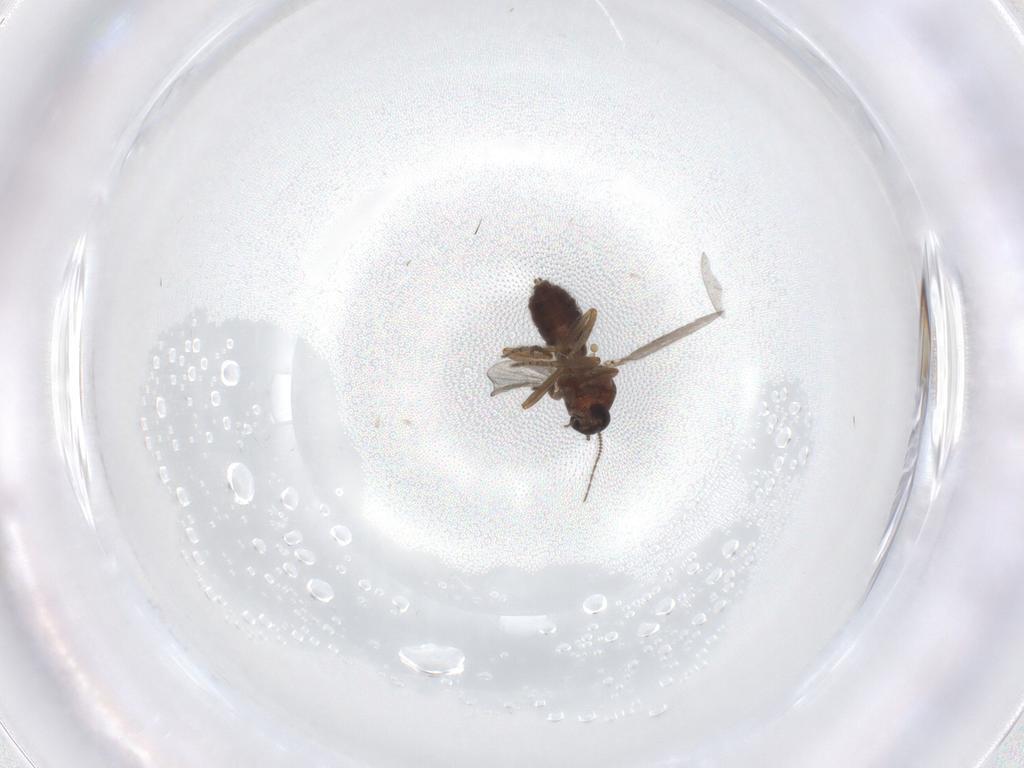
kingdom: Animalia
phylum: Arthropoda
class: Insecta
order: Diptera
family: Ceratopogonidae
